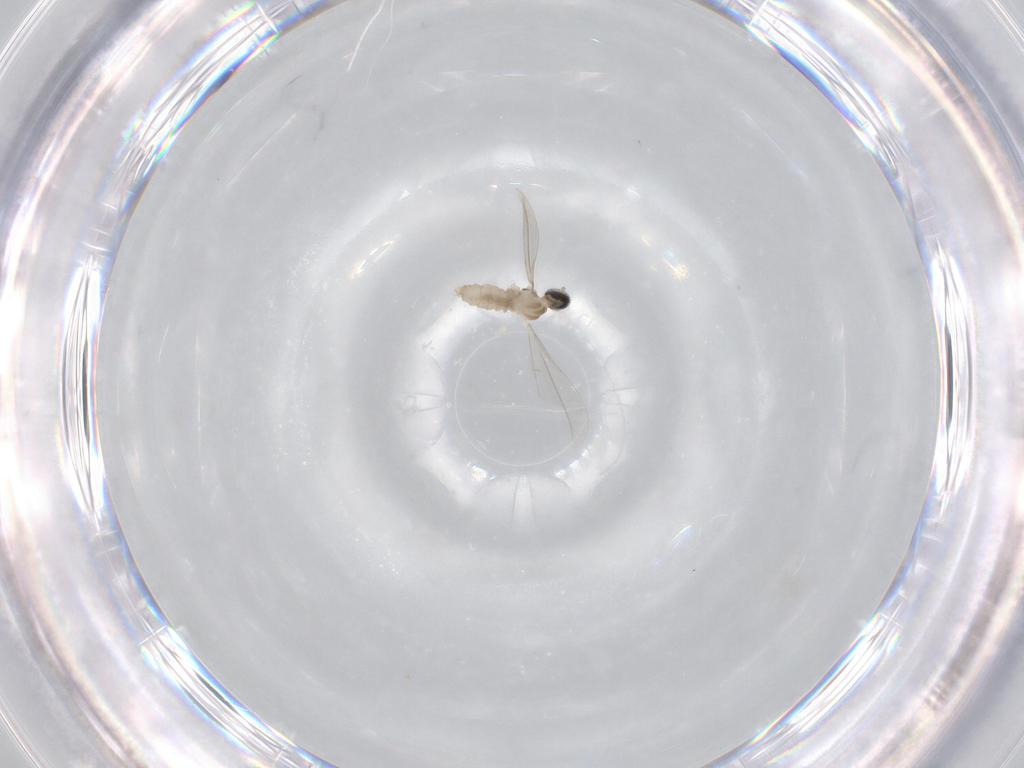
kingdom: Animalia
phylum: Arthropoda
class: Insecta
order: Diptera
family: Cecidomyiidae
